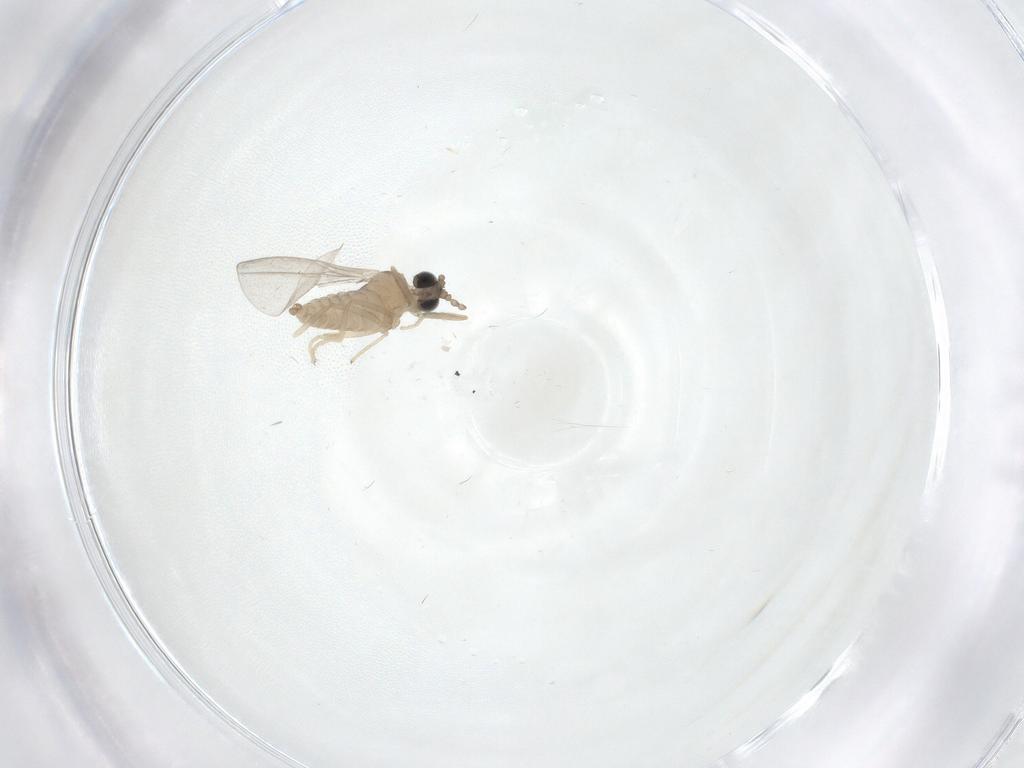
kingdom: Animalia
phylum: Arthropoda
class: Insecta
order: Diptera
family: Cecidomyiidae
